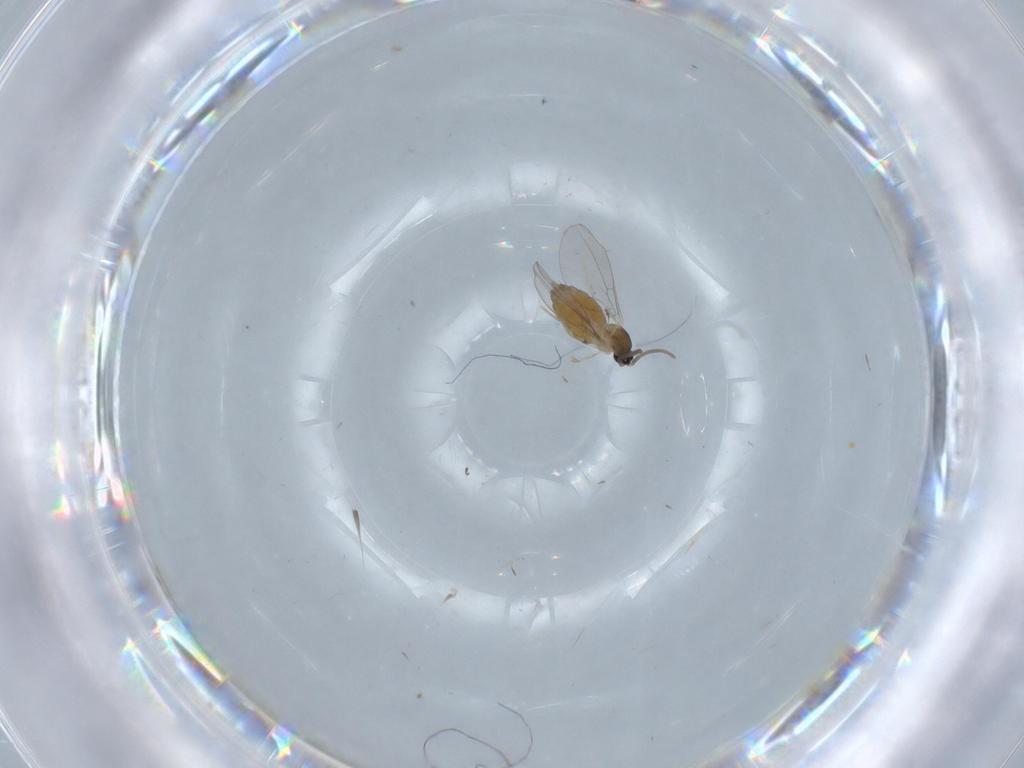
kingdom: Animalia
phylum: Arthropoda
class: Insecta
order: Diptera
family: Cecidomyiidae
